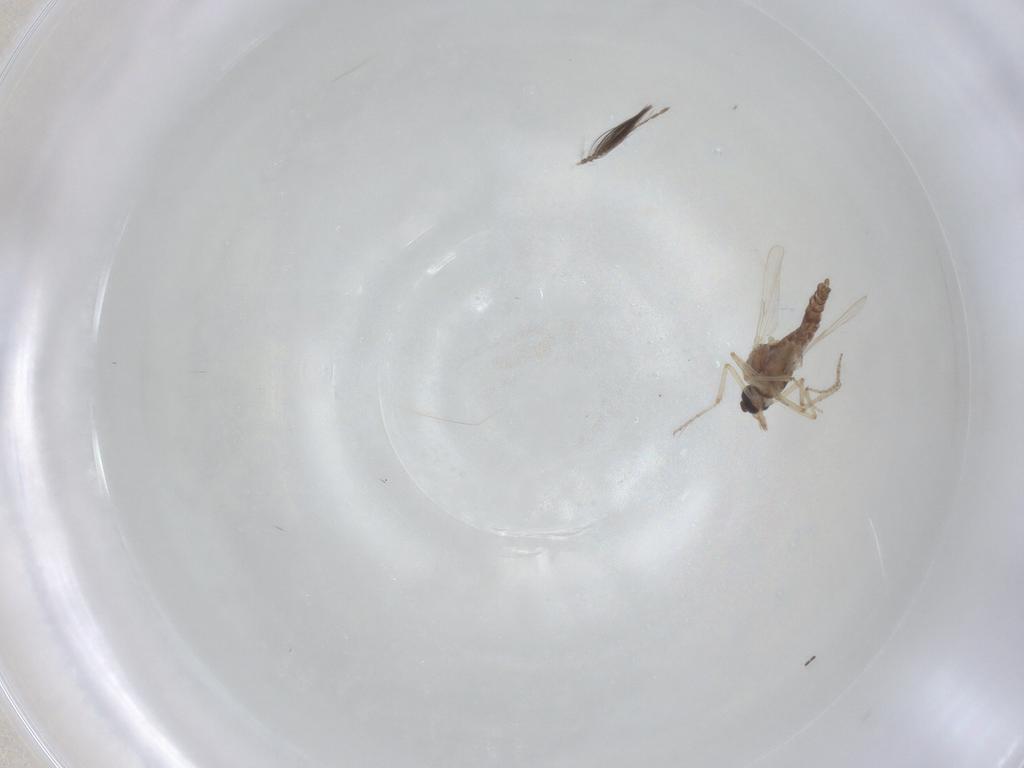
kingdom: Animalia
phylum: Arthropoda
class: Insecta
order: Diptera
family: Ceratopogonidae
